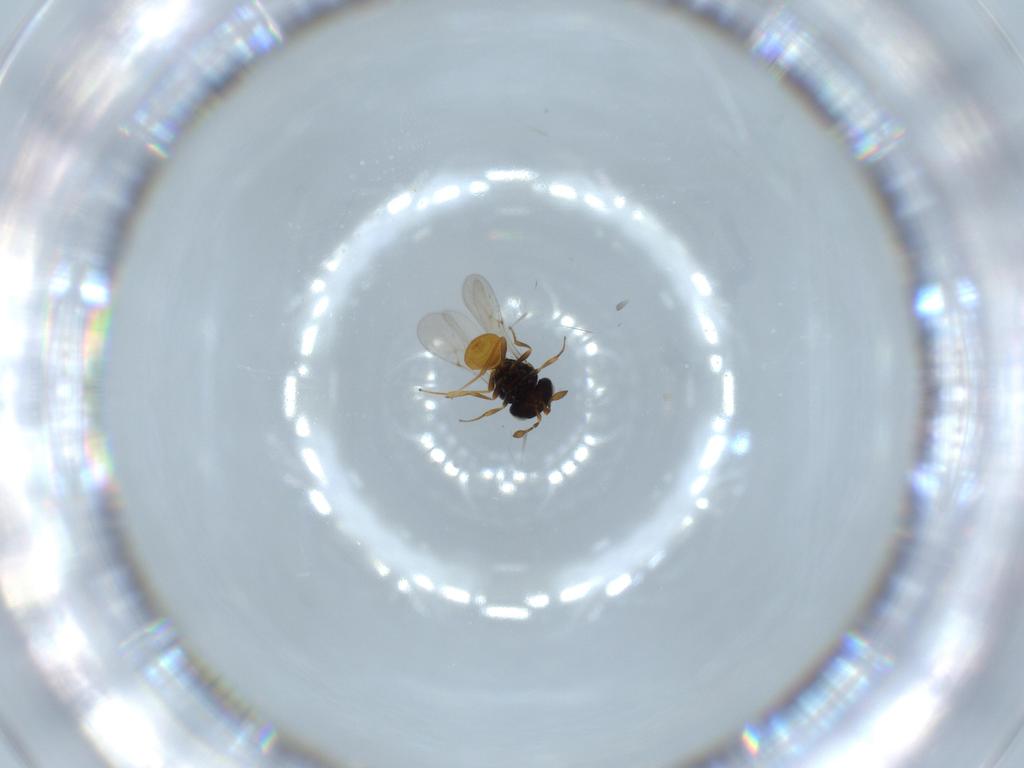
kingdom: Animalia
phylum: Arthropoda
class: Insecta
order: Hymenoptera
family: Scelionidae
